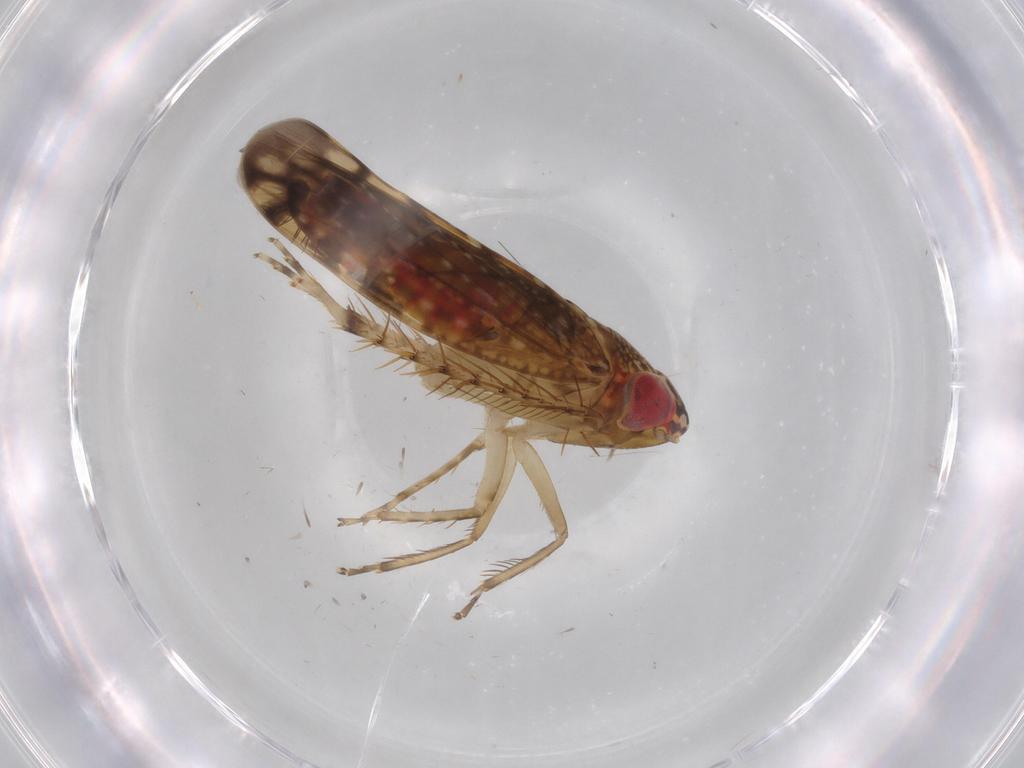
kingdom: Animalia
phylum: Arthropoda
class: Insecta
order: Hemiptera
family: Cicadellidae
